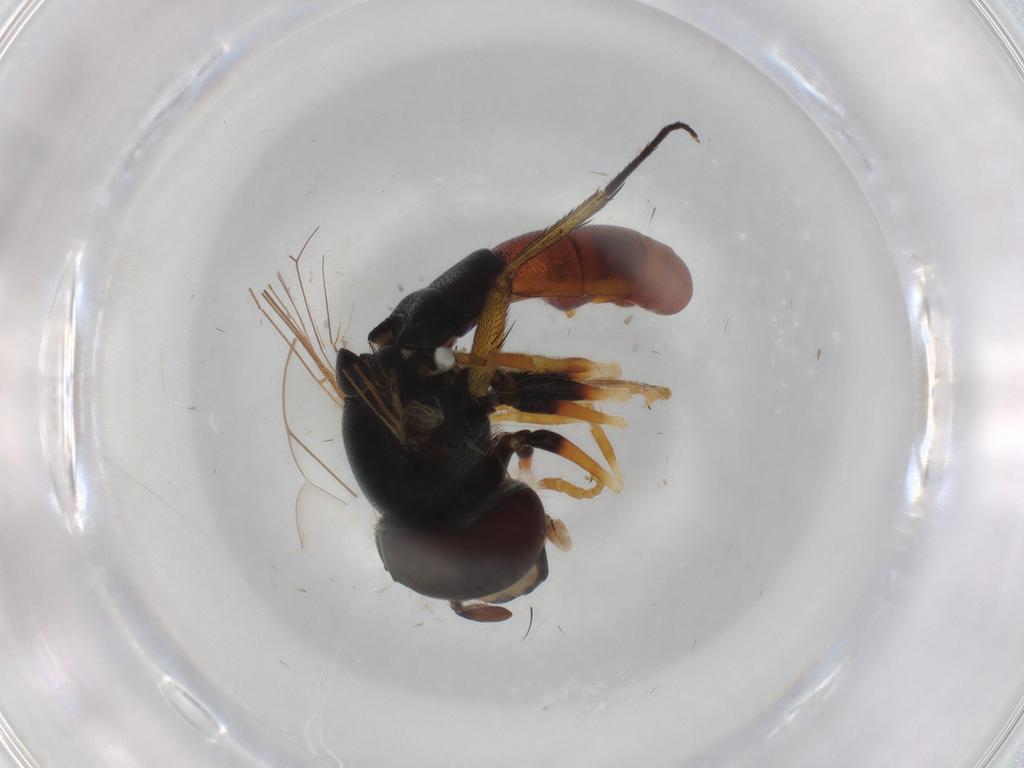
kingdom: Animalia
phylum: Arthropoda
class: Insecta
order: Diptera
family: Syrphidae
